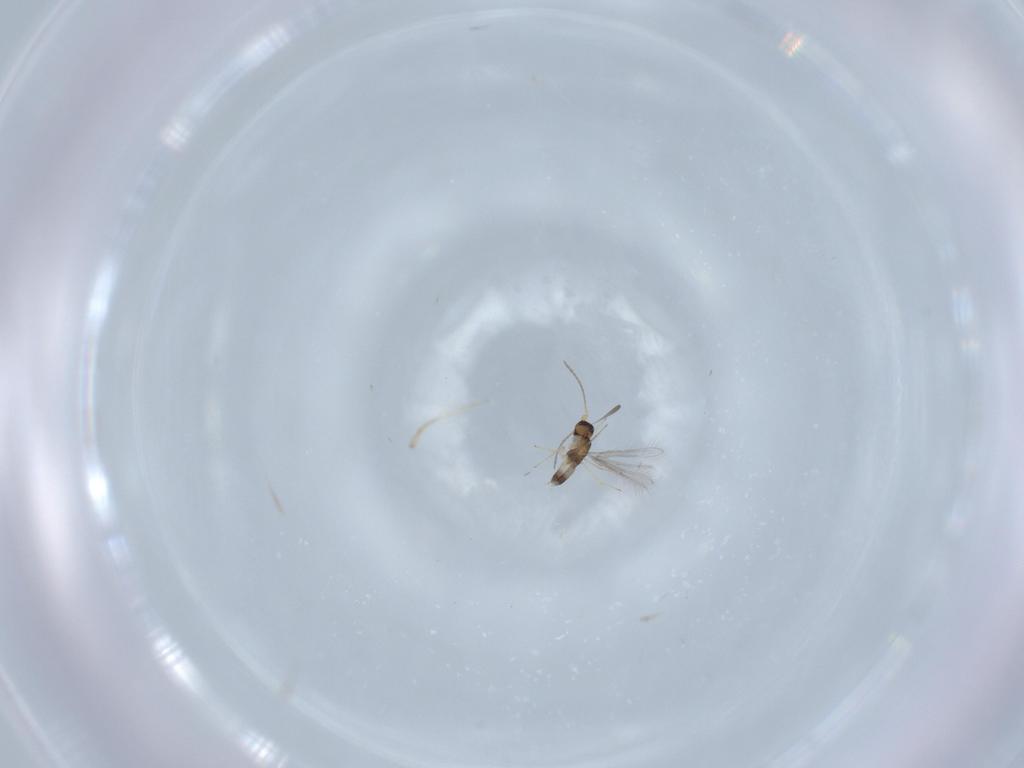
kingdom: Animalia
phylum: Arthropoda
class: Insecta
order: Hymenoptera
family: Mymaridae
